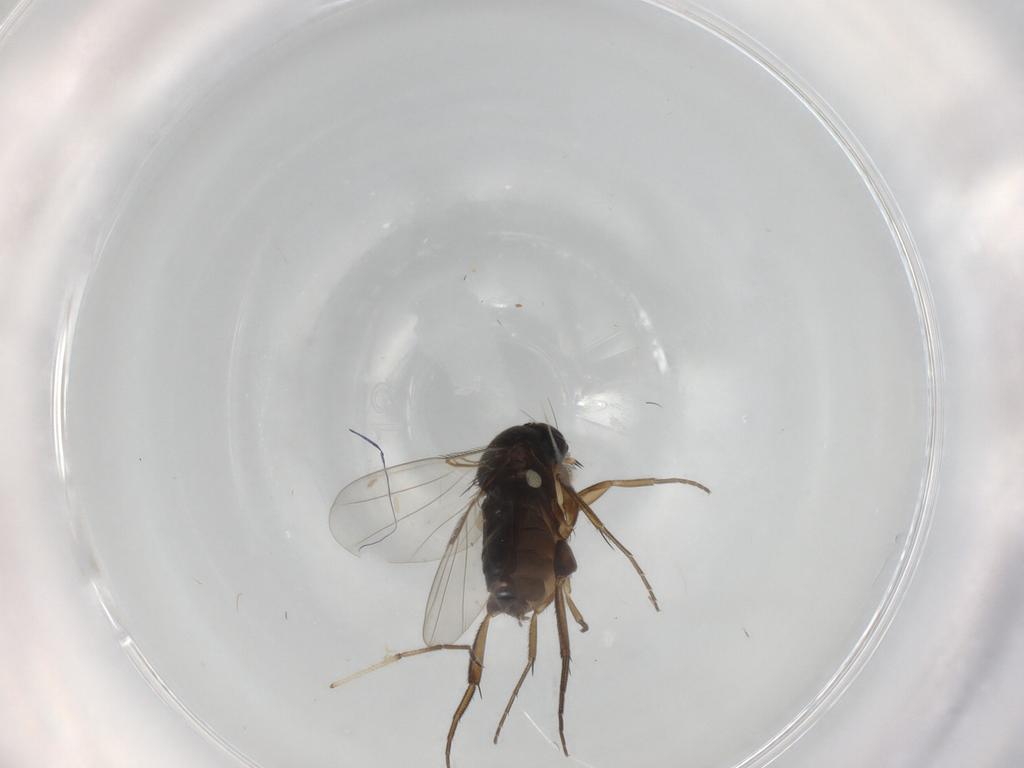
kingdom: Animalia
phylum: Arthropoda
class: Insecta
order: Diptera
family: Phoridae
